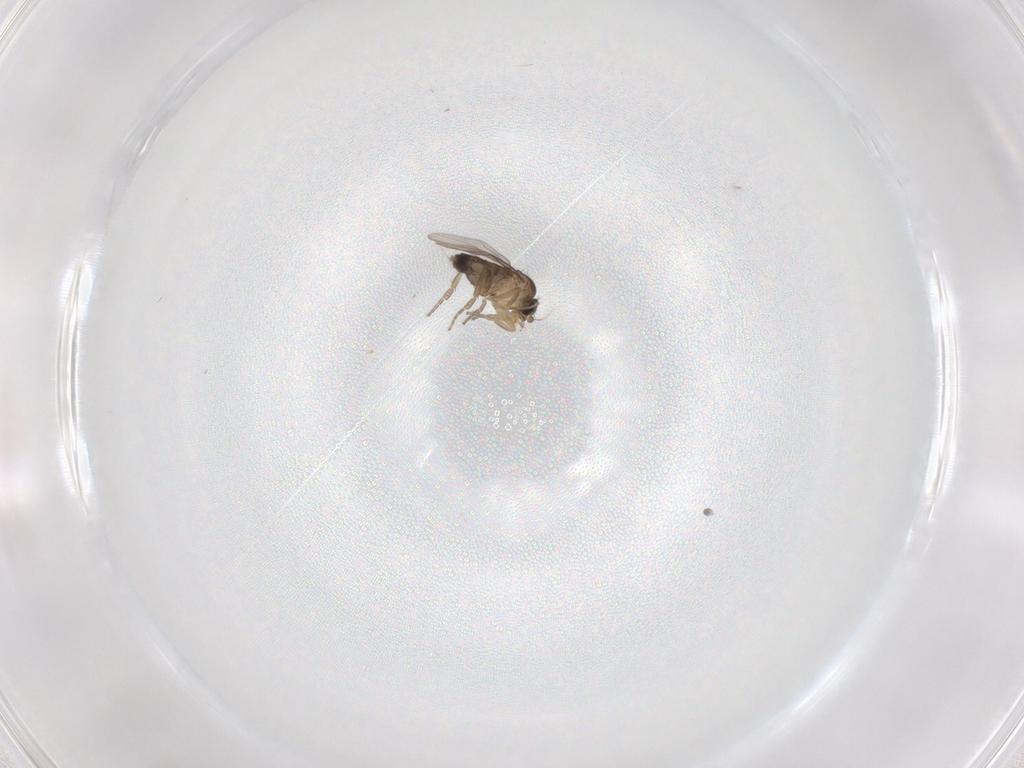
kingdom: Animalia
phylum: Arthropoda
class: Insecta
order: Diptera
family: Phoridae
